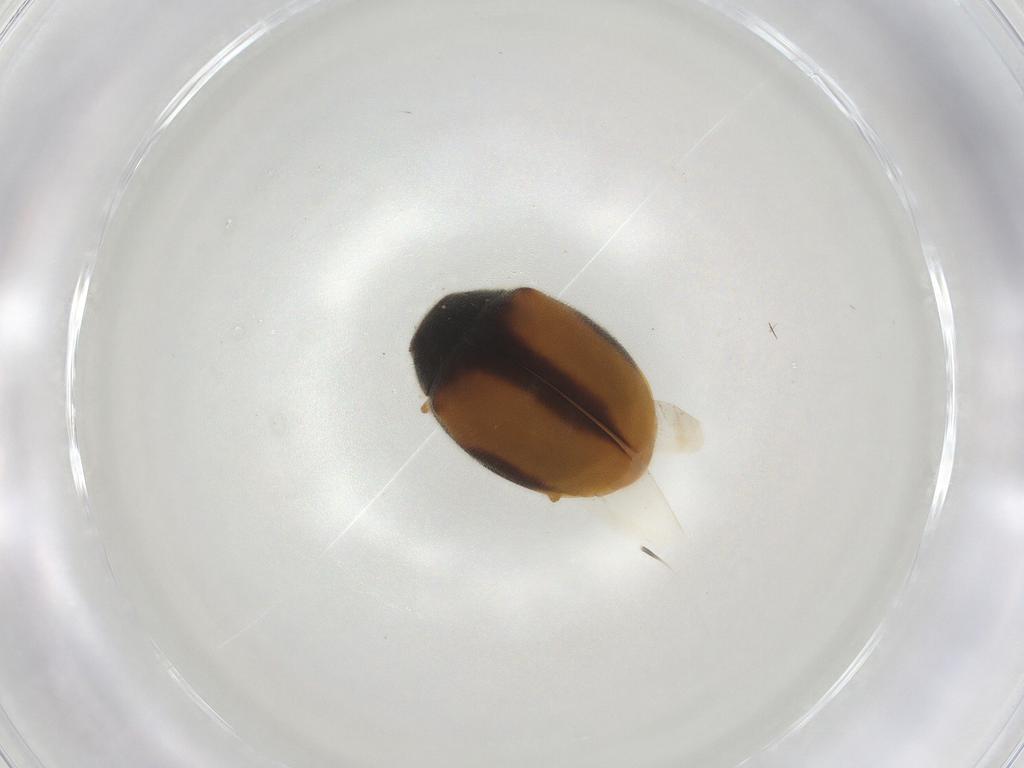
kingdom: Animalia
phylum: Arthropoda
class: Insecta
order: Coleoptera
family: Coccinellidae
